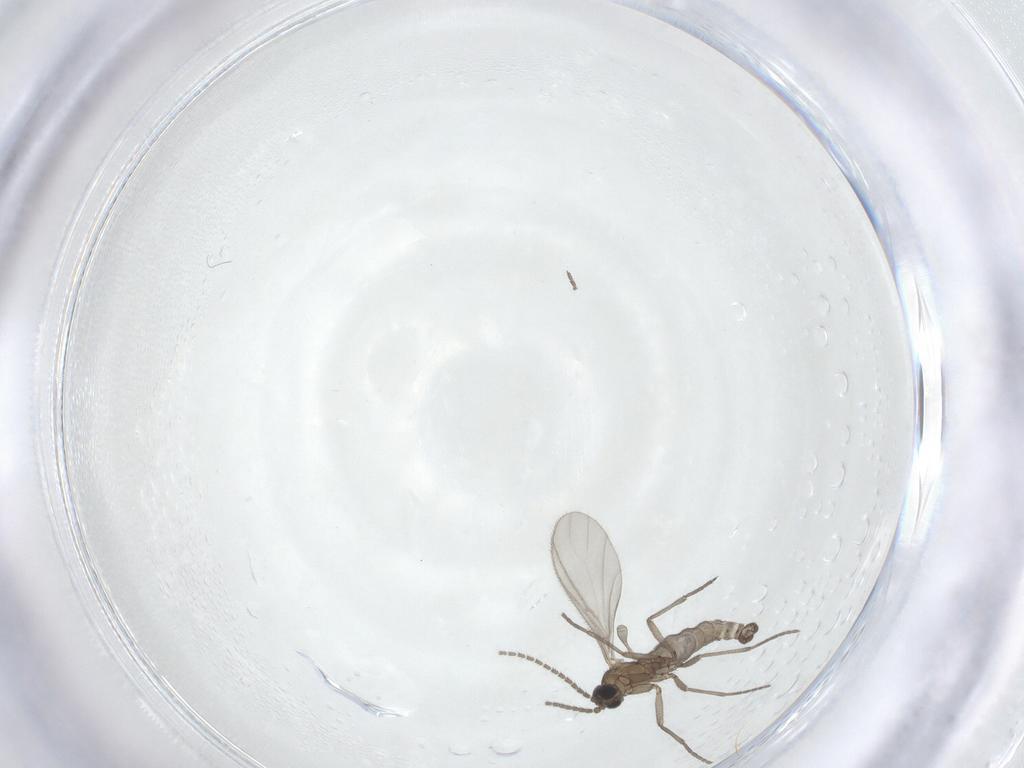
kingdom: Animalia
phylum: Arthropoda
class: Insecta
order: Diptera
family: Sciaridae
